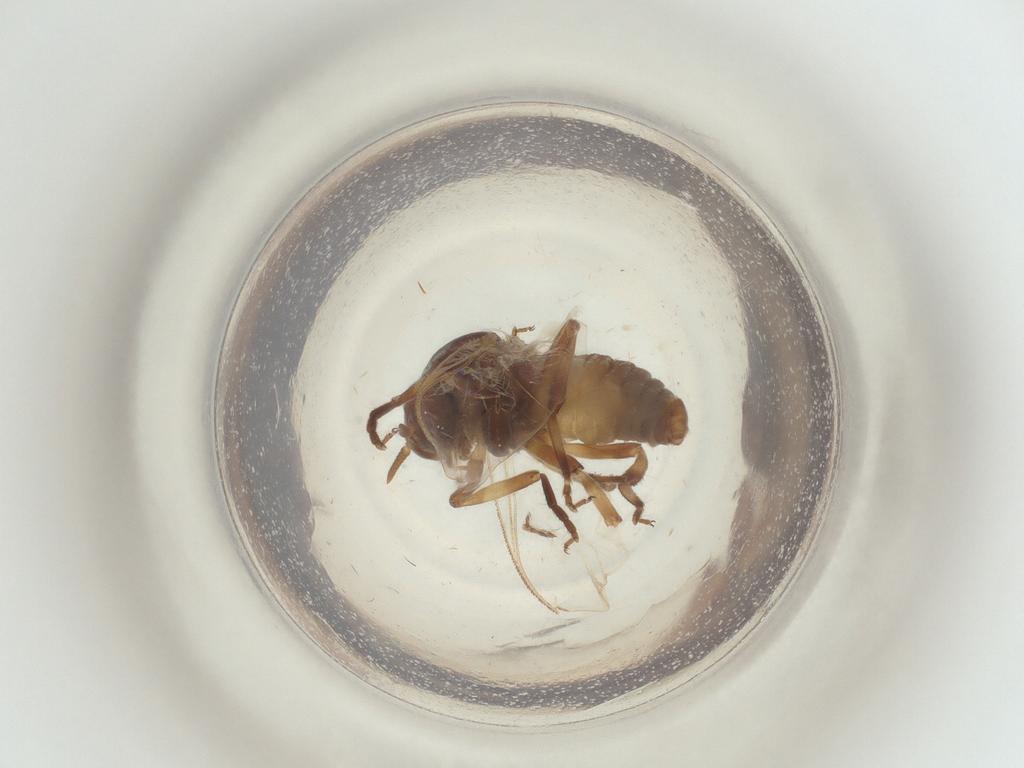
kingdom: Animalia
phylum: Arthropoda
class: Insecta
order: Diptera
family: Simuliidae
